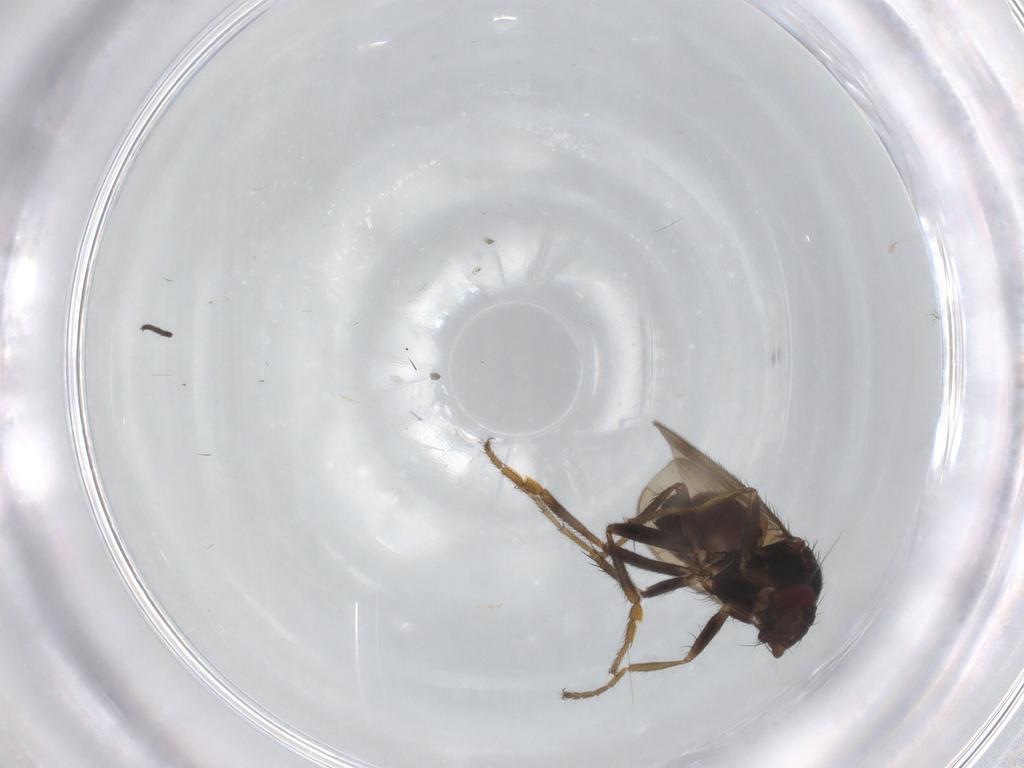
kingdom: Animalia
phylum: Arthropoda
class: Insecta
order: Diptera
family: Sphaeroceridae
